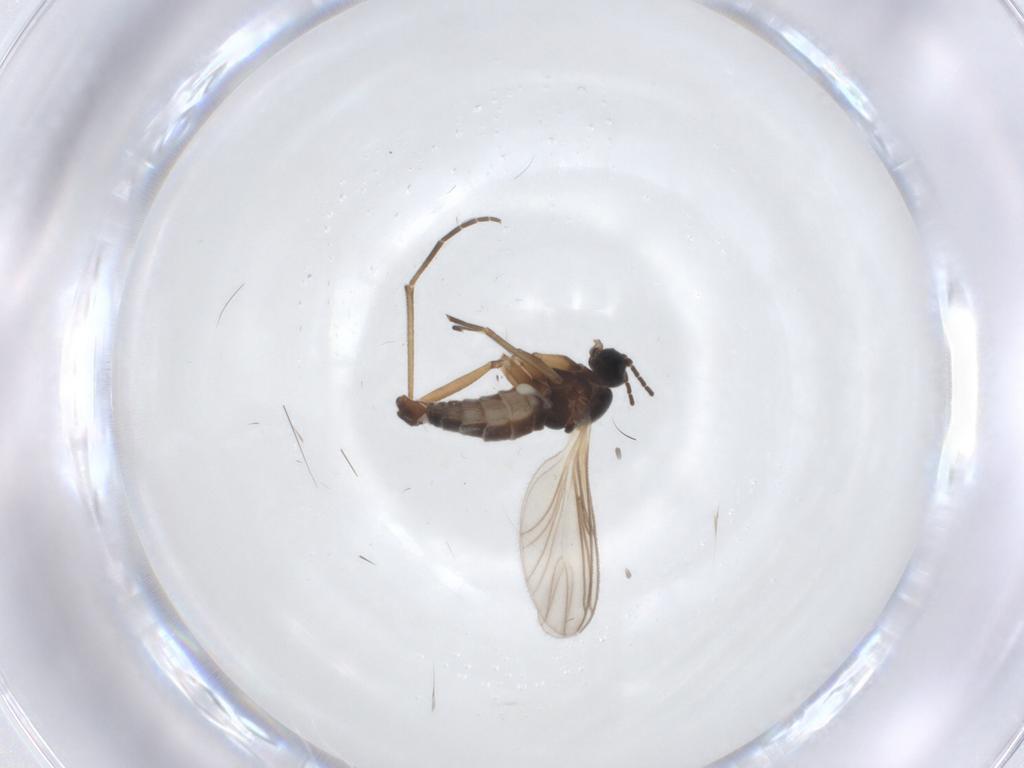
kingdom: Animalia
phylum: Arthropoda
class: Insecta
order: Diptera
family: Sciaridae
